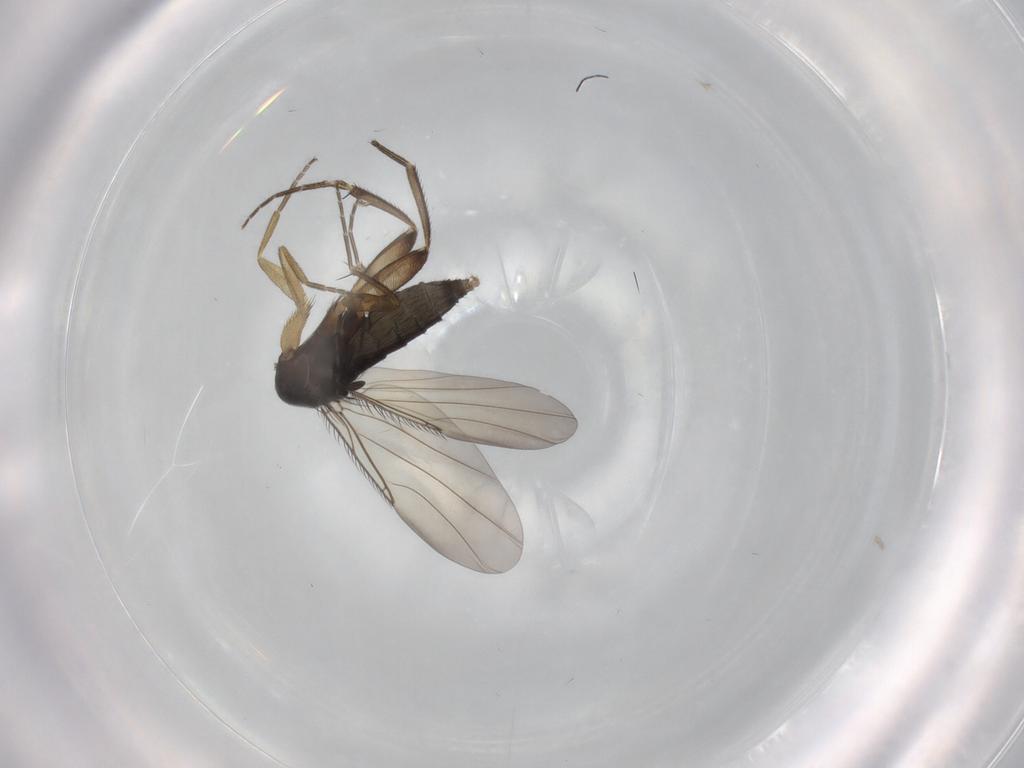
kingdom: Animalia
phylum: Arthropoda
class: Insecta
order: Diptera
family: Phoridae
